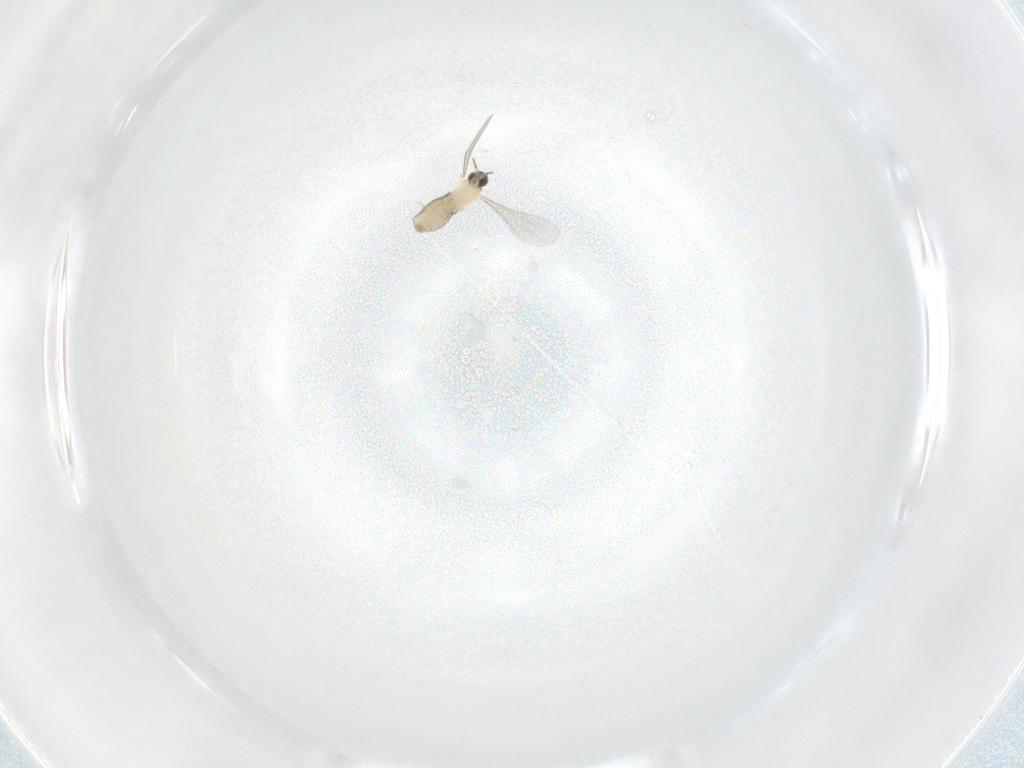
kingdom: Animalia
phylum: Arthropoda
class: Insecta
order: Diptera
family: Cecidomyiidae
